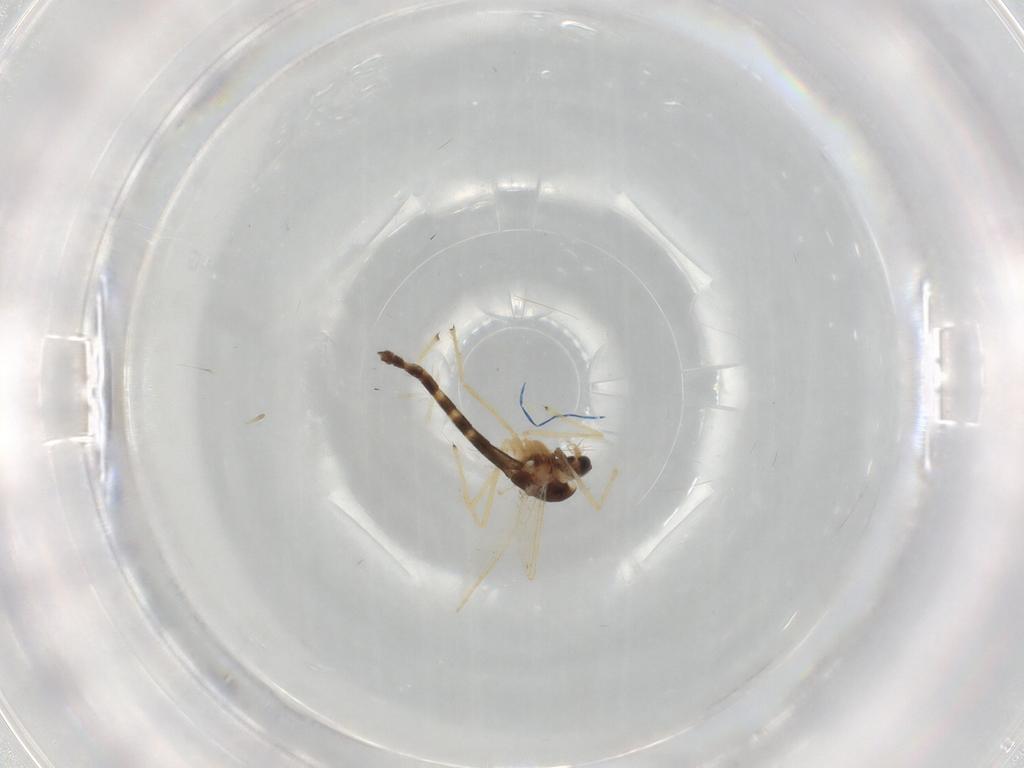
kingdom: Animalia
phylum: Arthropoda
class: Insecta
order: Diptera
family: Chironomidae
